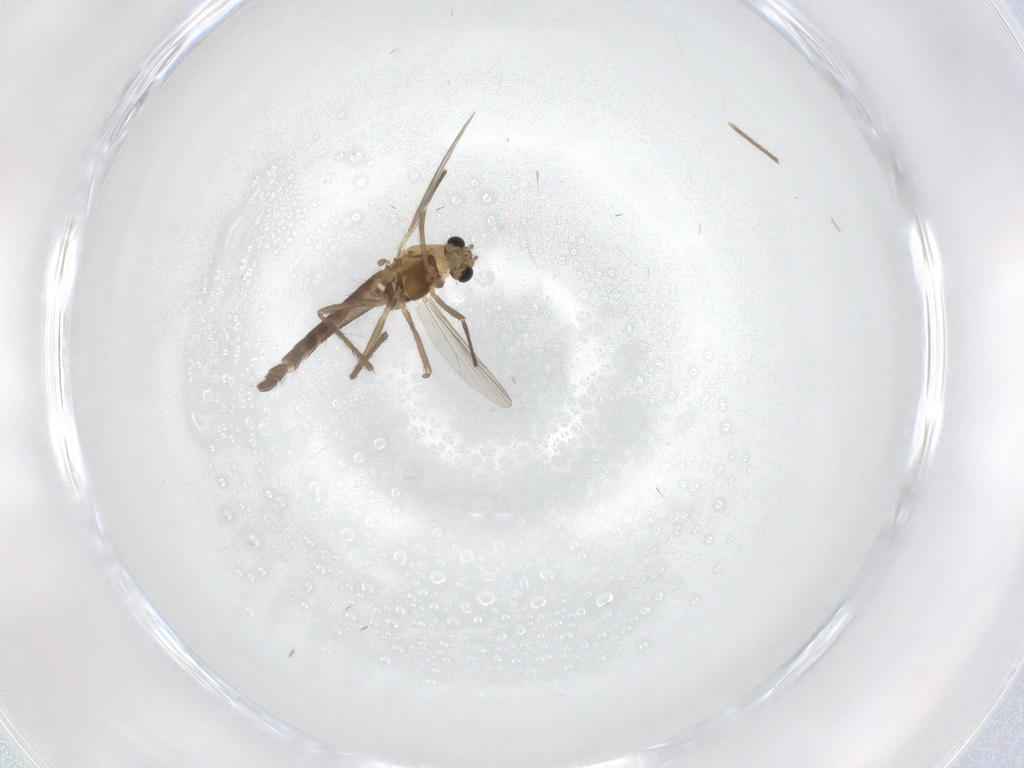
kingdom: Animalia
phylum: Arthropoda
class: Insecta
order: Diptera
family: Chironomidae
